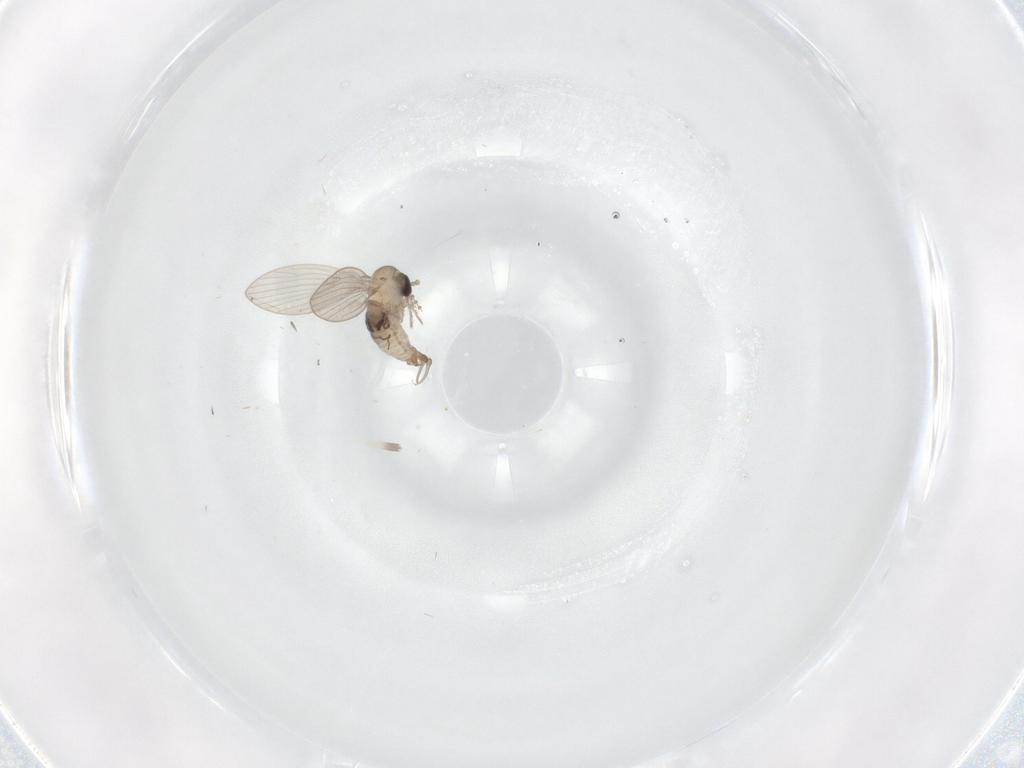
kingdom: Animalia
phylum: Arthropoda
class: Insecta
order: Diptera
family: Psychodidae
